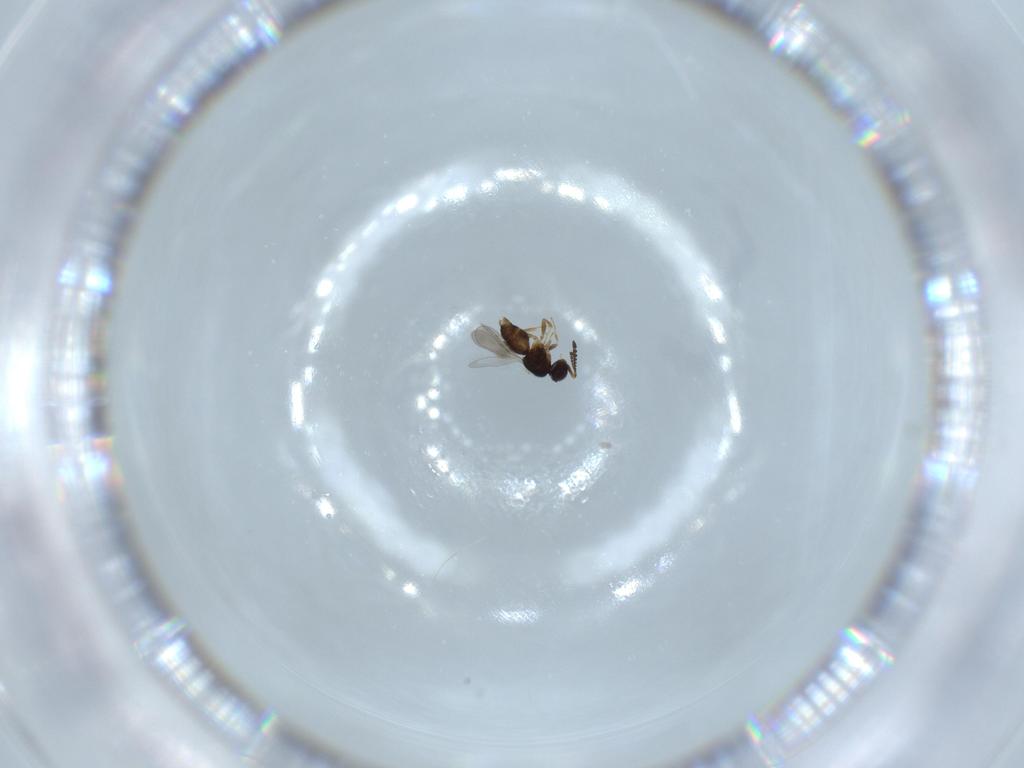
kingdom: Animalia
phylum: Arthropoda
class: Insecta
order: Hymenoptera
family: Scelionidae
